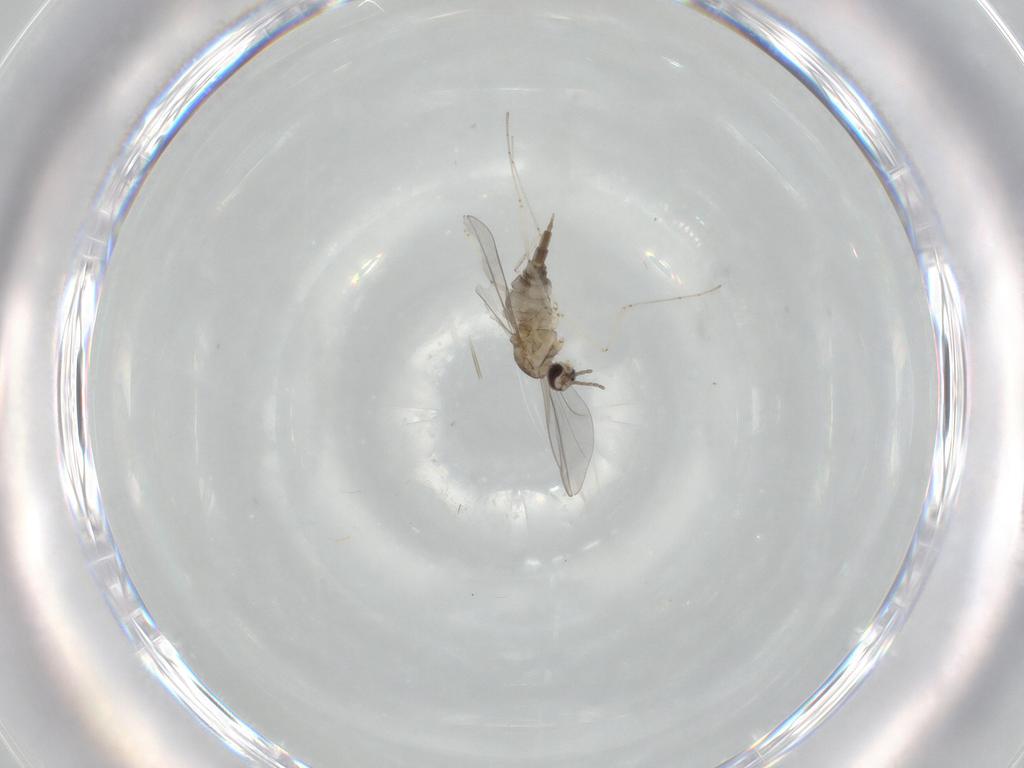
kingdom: Animalia
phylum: Arthropoda
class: Insecta
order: Diptera
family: Cecidomyiidae
